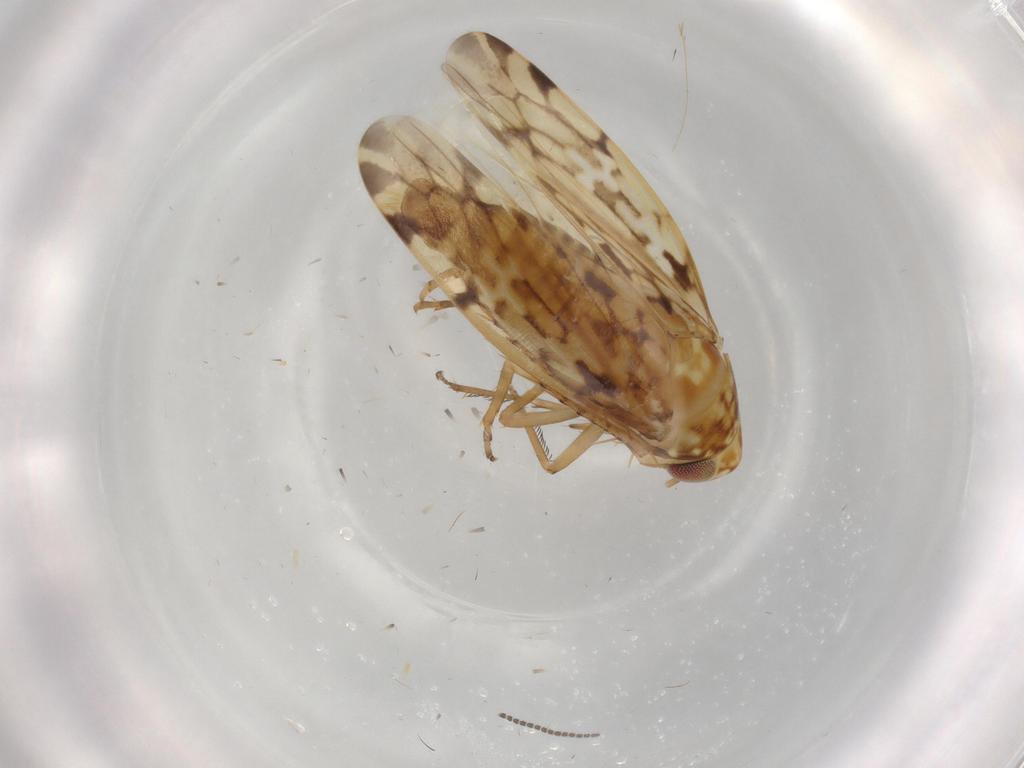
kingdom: Animalia
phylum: Arthropoda
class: Insecta
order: Hemiptera
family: Cicadellidae
